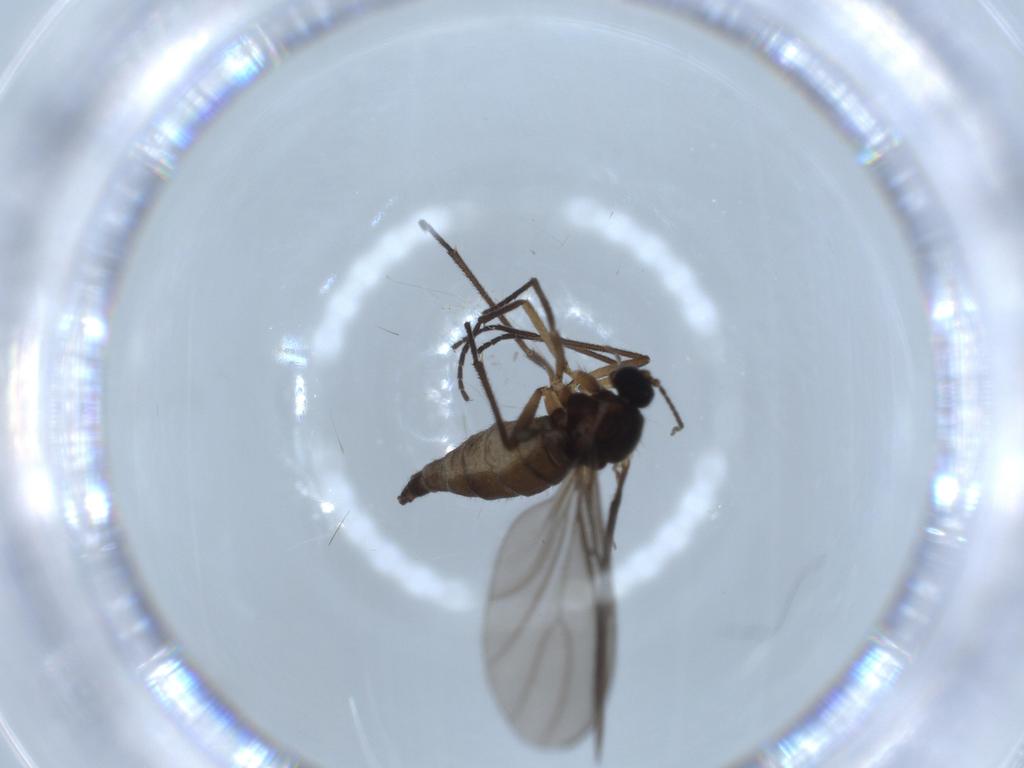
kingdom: Animalia
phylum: Arthropoda
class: Insecta
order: Diptera
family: Sciaridae
